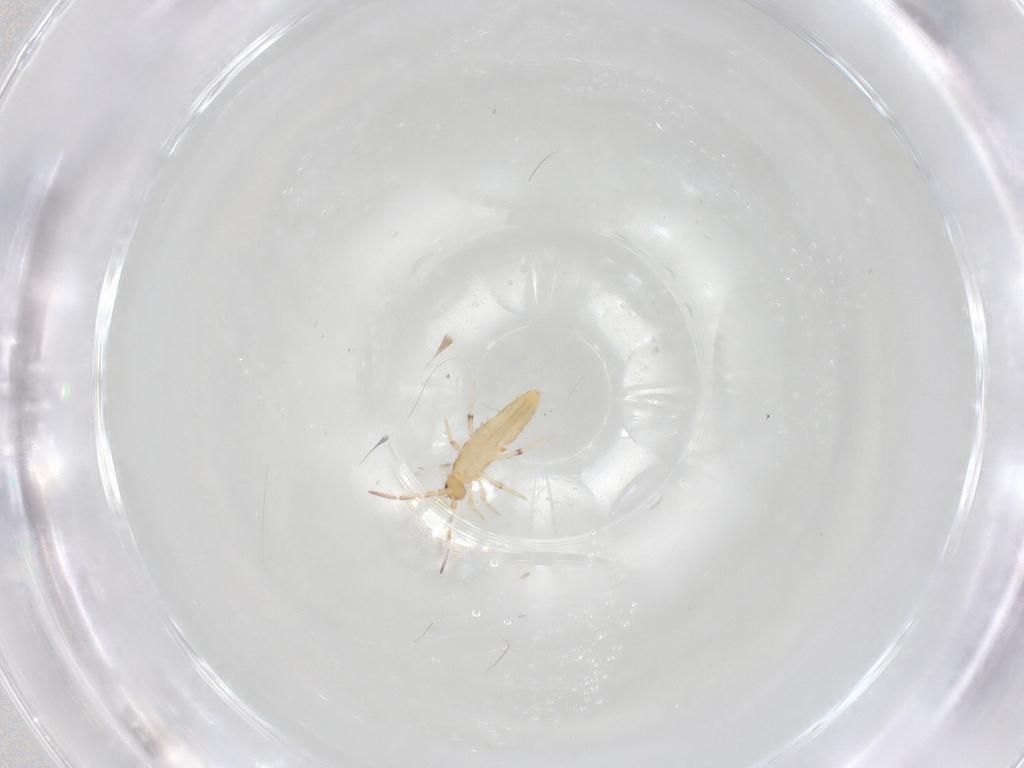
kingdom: Animalia
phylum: Arthropoda
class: Collembola
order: Entomobryomorpha
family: Entomobryidae
